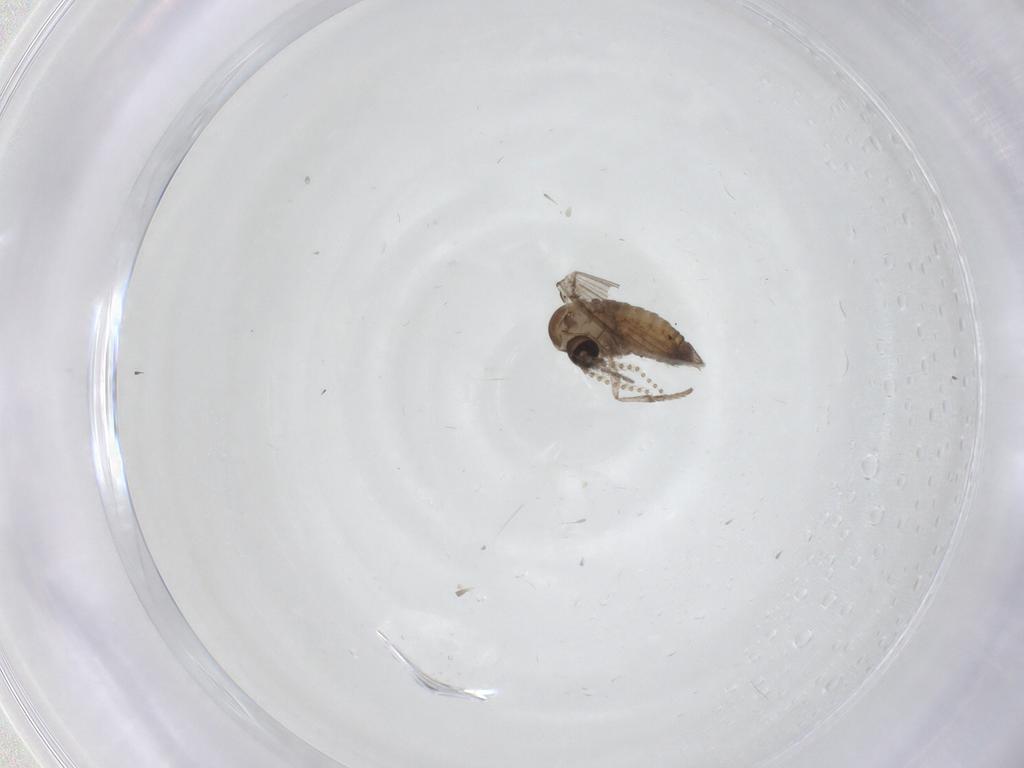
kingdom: Animalia
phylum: Arthropoda
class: Insecta
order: Diptera
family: Psychodidae
